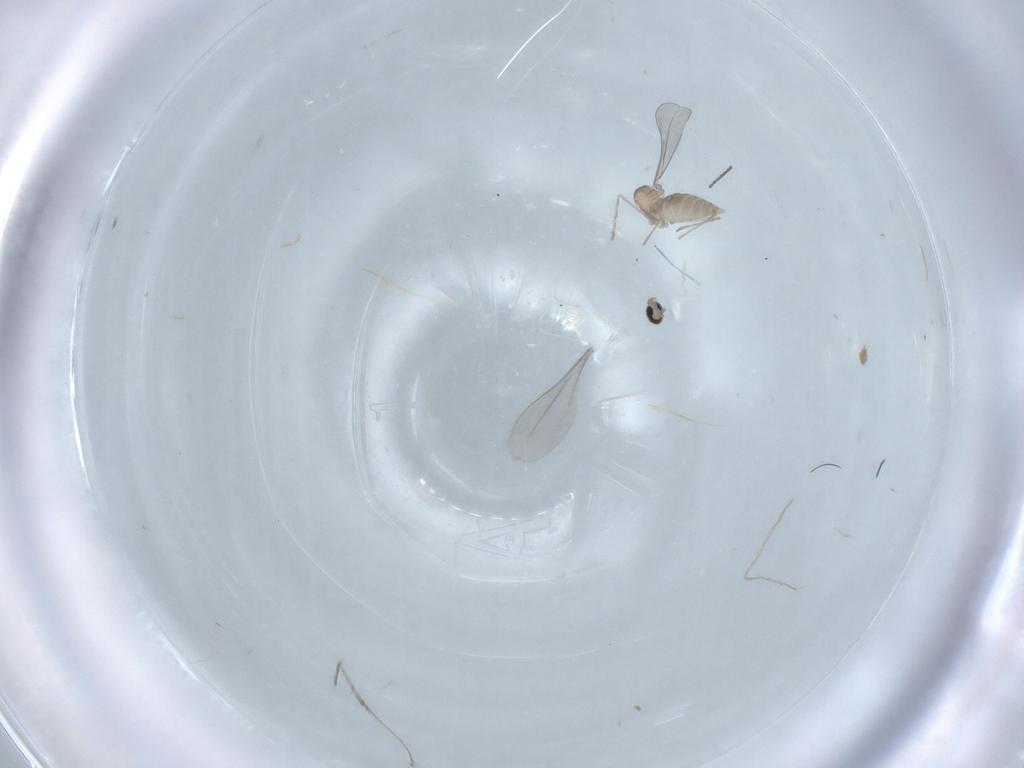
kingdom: Animalia
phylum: Arthropoda
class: Insecta
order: Diptera
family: Cecidomyiidae
